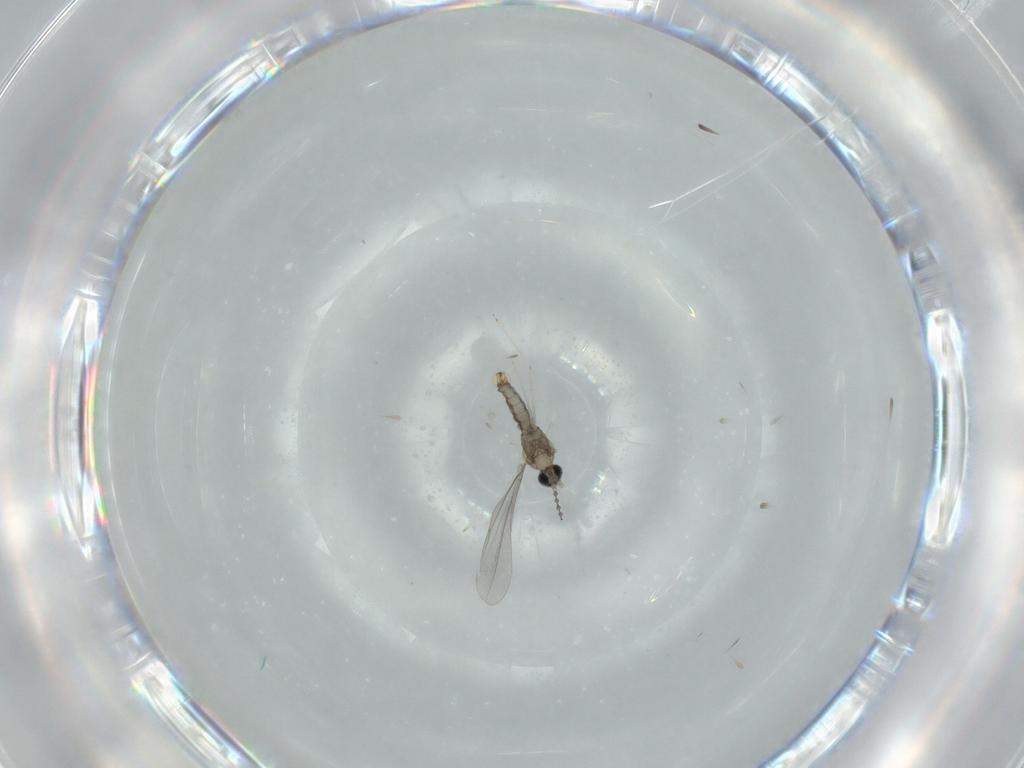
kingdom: Animalia
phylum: Arthropoda
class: Insecta
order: Diptera
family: Cecidomyiidae
